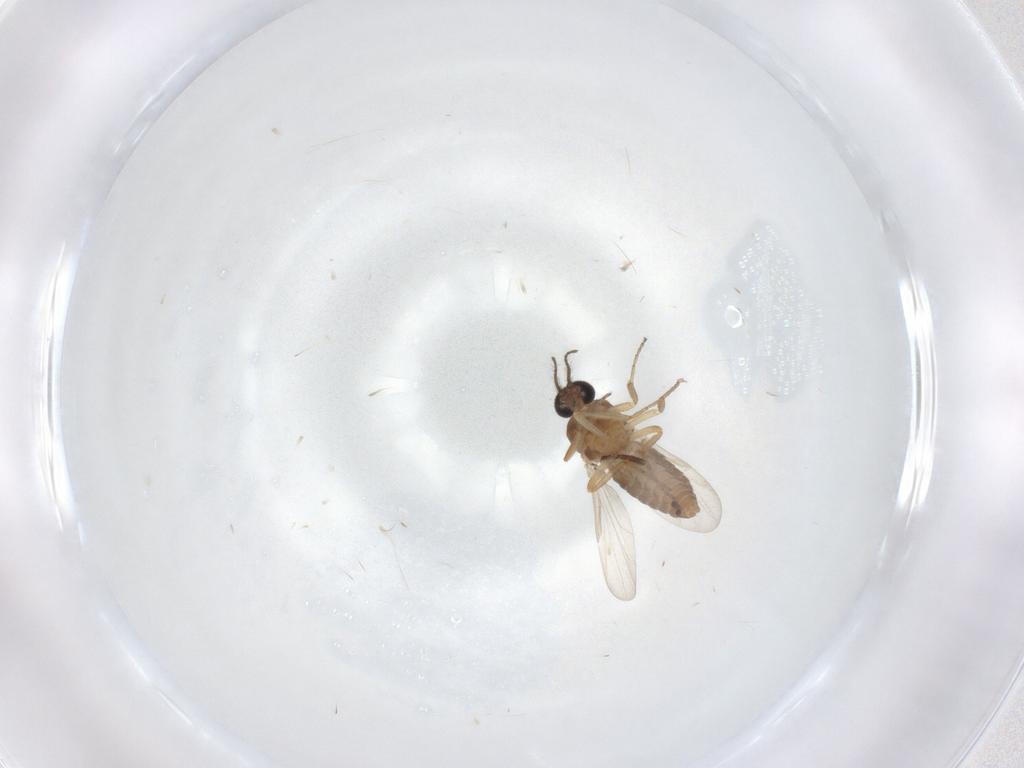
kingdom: Animalia
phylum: Arthropoda
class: Insecta
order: Diptera
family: Ceratopogonidae
